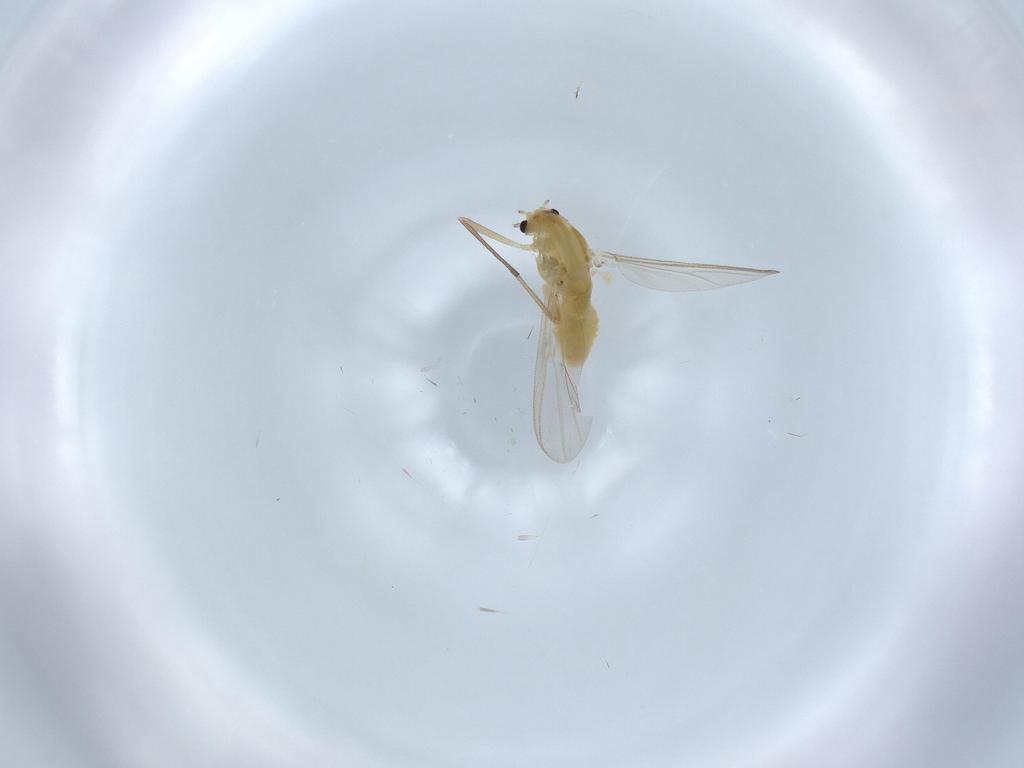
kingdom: Animalia
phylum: Arthropoda
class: Insecta
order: Diptera
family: Chironomidae
